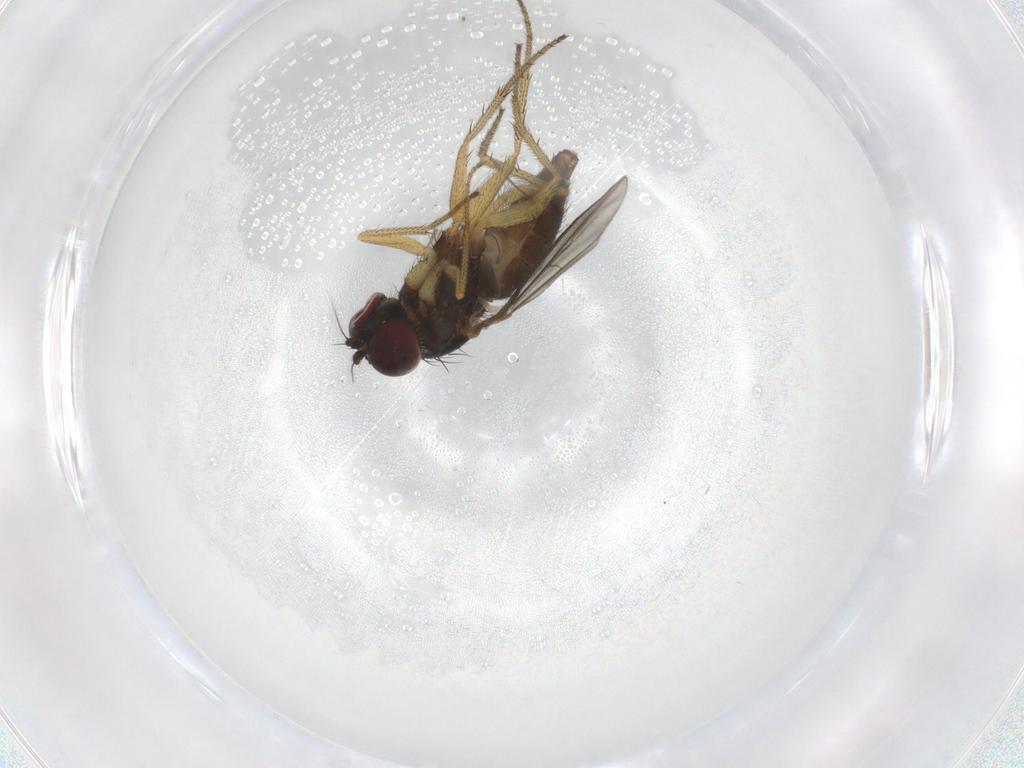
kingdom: Animalia
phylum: Arthropoda
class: Insecta
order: Diptera
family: Dolichopodidae
